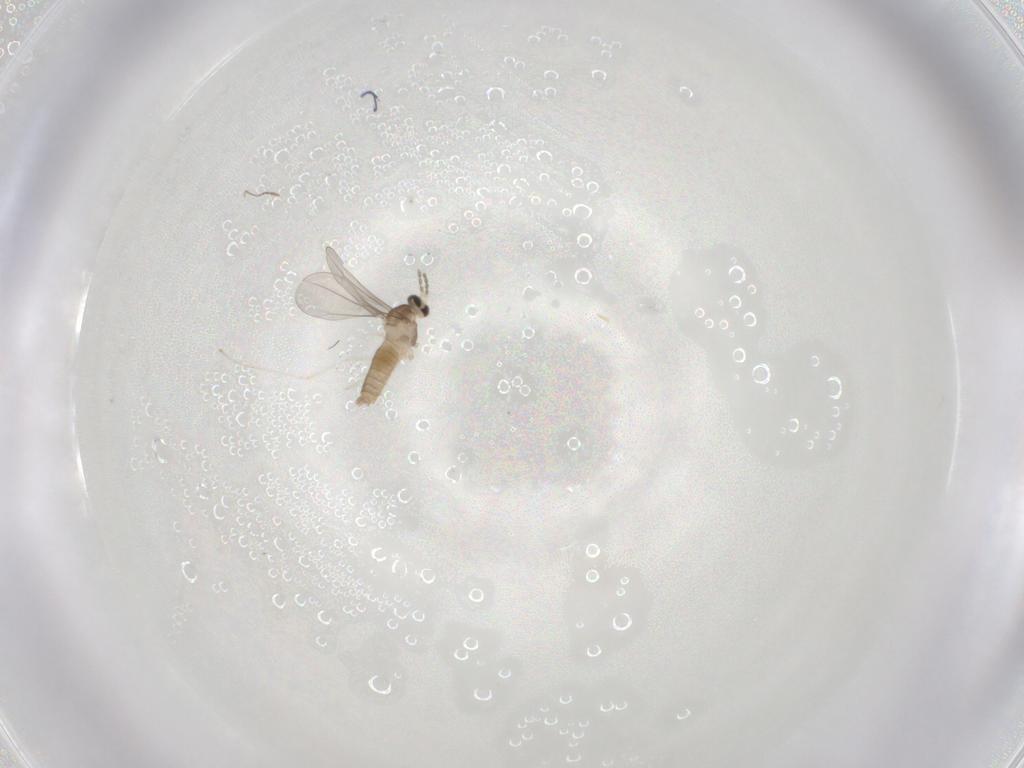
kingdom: Animalia
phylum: Arthropoda
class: Insecta
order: Diptera
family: Cecidomyiidae
